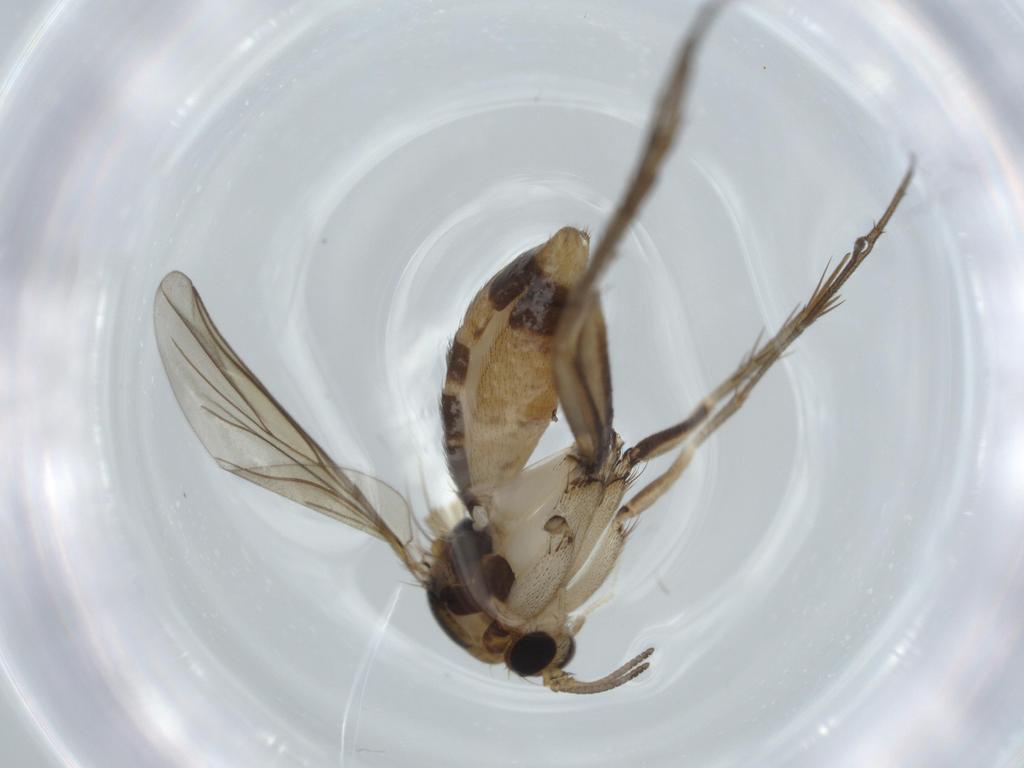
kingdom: Animalia
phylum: Arthropoda
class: Insecta
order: Diptera
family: Mycetophilidae
